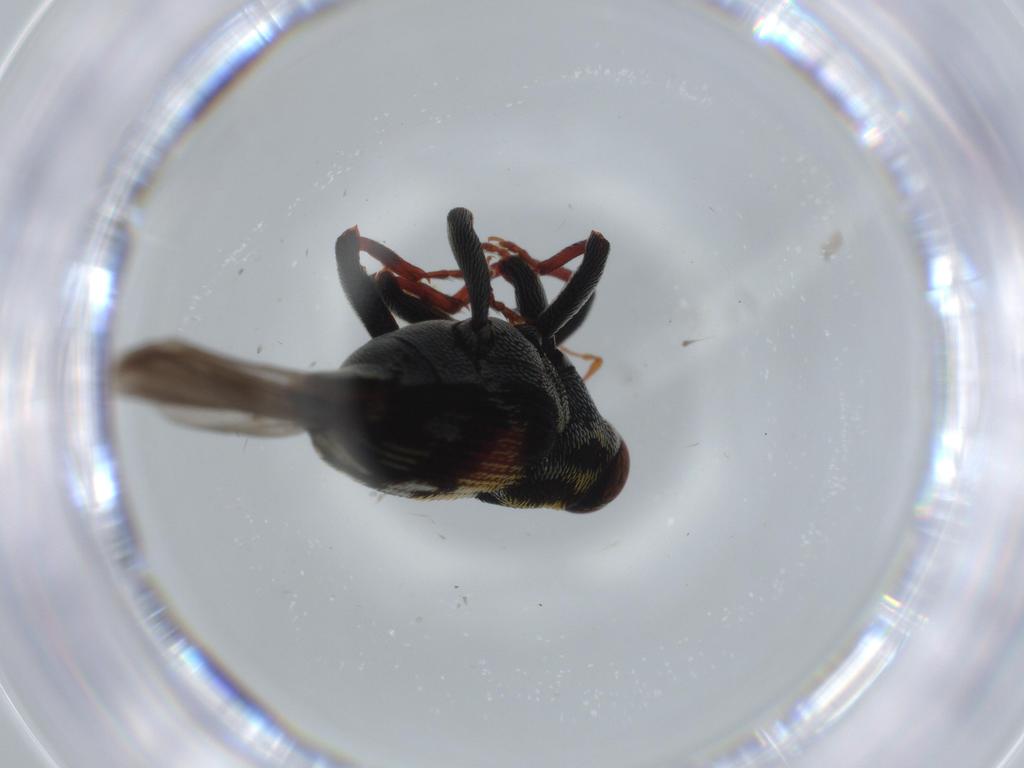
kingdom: Animalia
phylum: Arthropoda
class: Insecta
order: Coleoptera
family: Curculionidae
